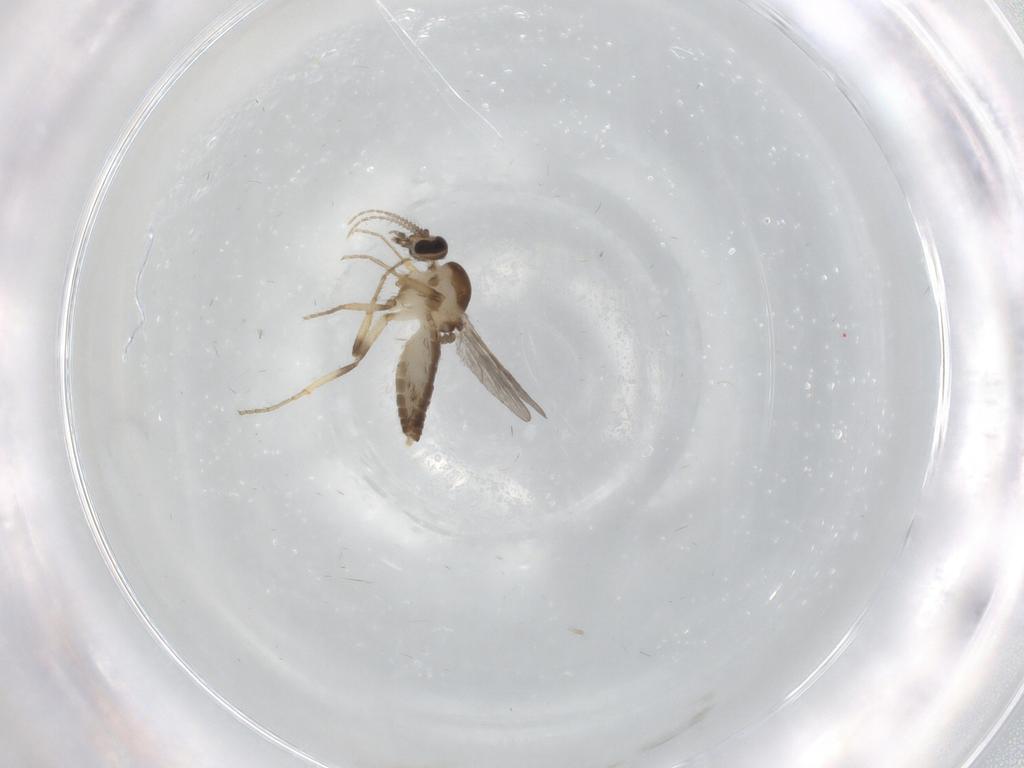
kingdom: Animalia
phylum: Arthropoda
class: Insecta
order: Diptera
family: Ceratopogonidae
